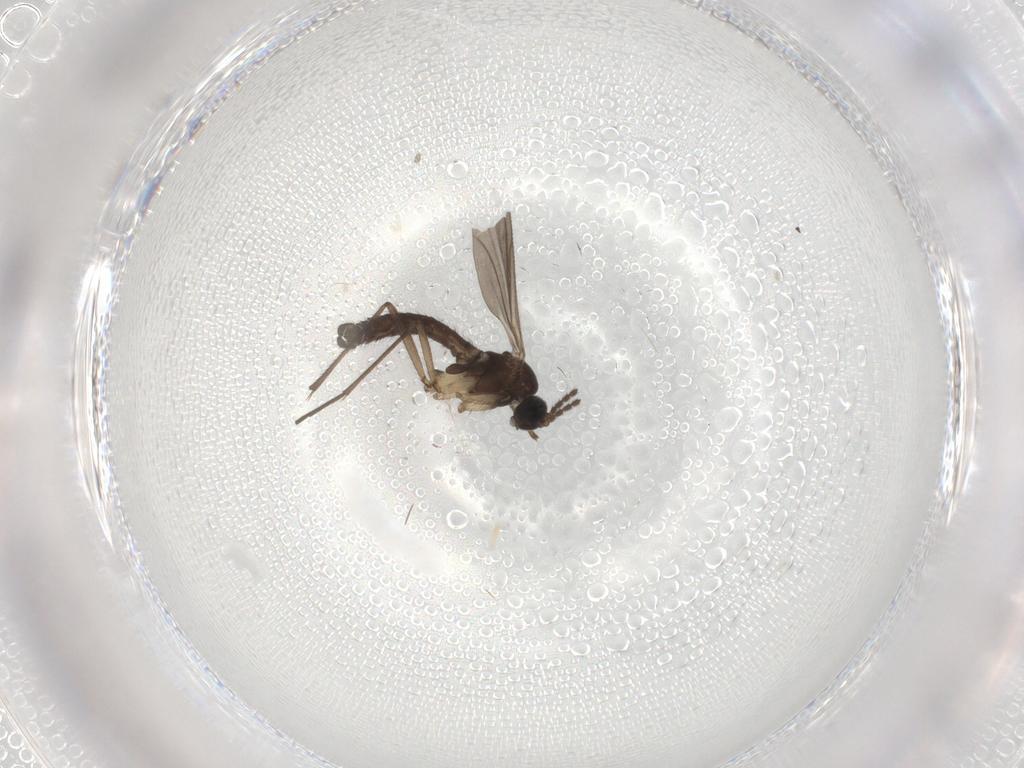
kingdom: Animalia
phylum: Arthropoda
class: Insecta
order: Diptera
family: Sciaridae
